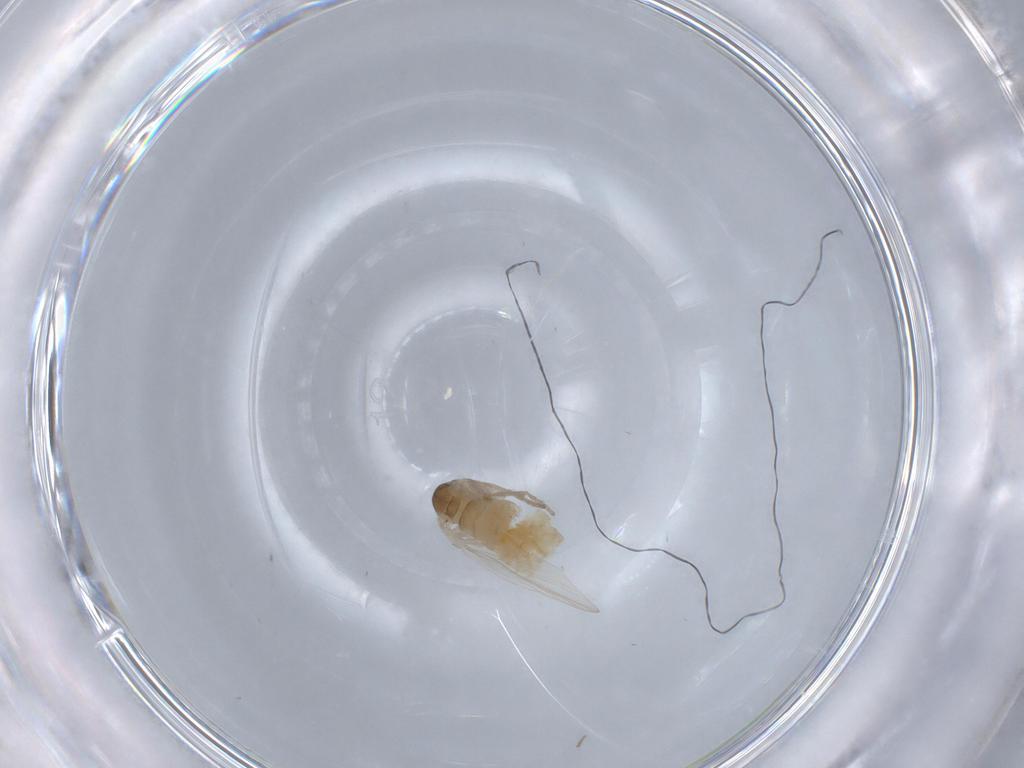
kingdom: Animalia
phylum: Arthropoda
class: Insecta
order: Diptera
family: Psychodidae
